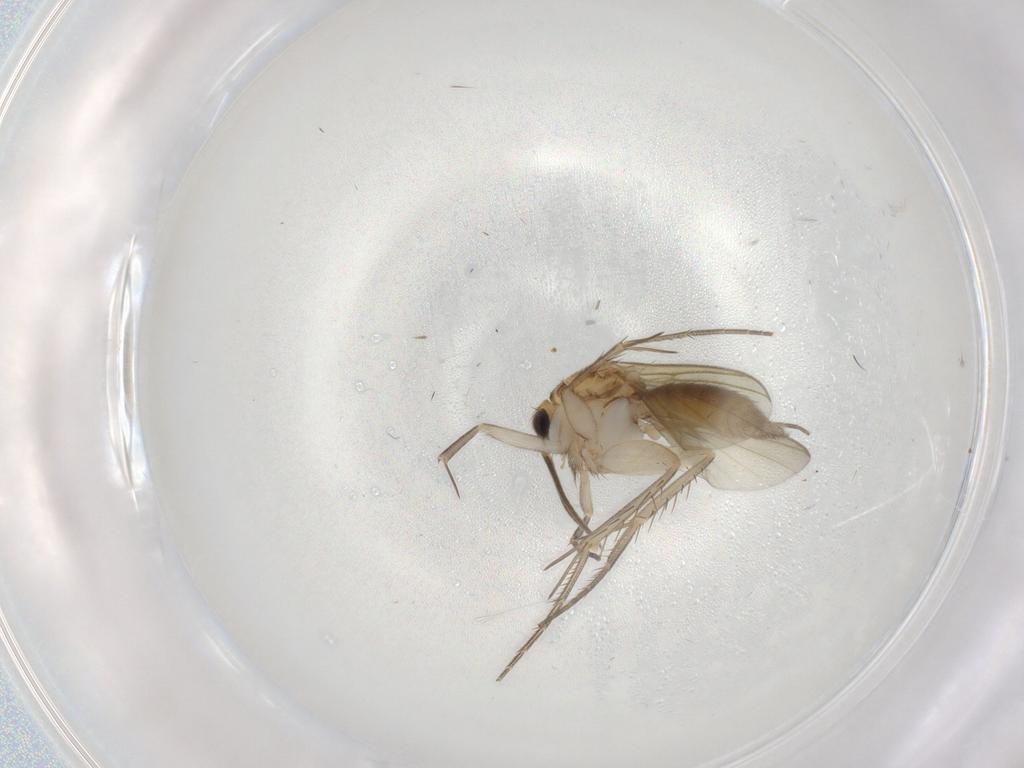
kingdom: Animalia
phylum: Arthropoda
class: Insecta
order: Diptera
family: Mycetophilidae
